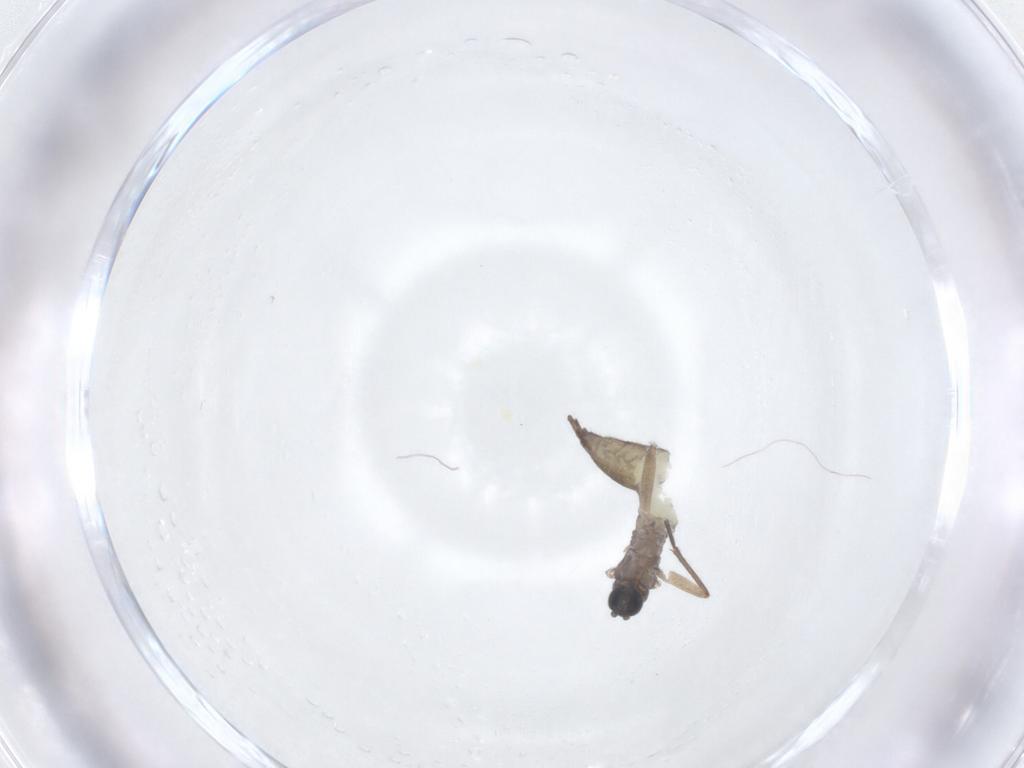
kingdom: Animalia
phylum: Arthropoda
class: Insecta
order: Diptera
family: Sciaridae
